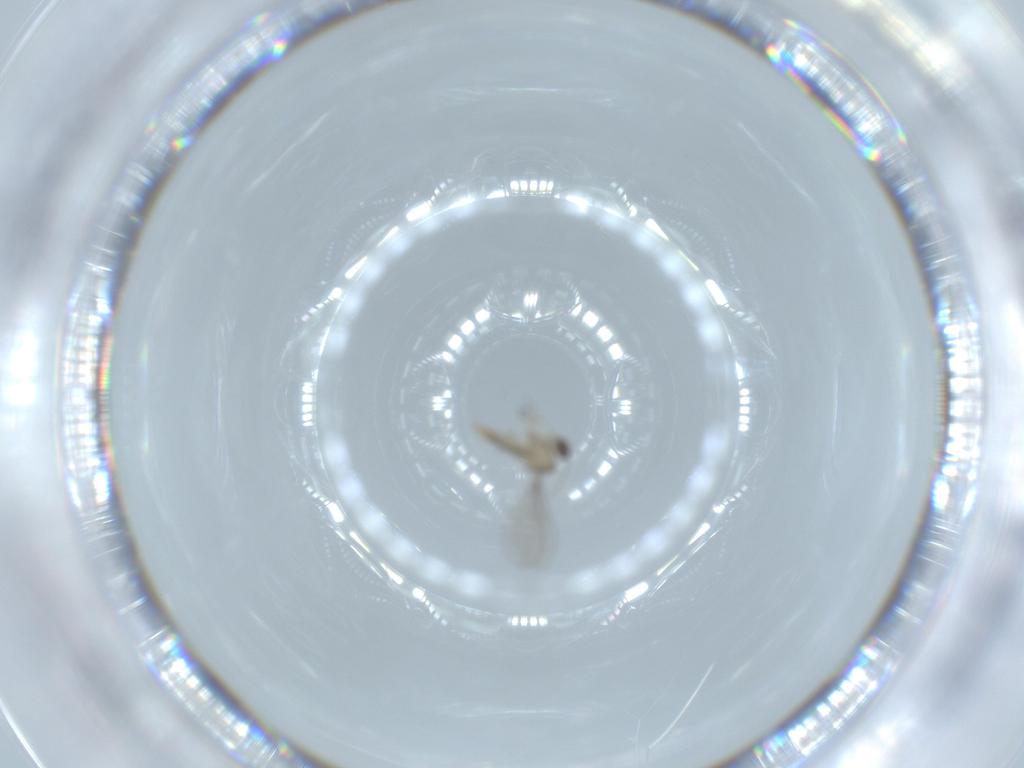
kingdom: Animalia
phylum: Arthropoda
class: Insecta
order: Diptera
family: Cecidomyiidae
